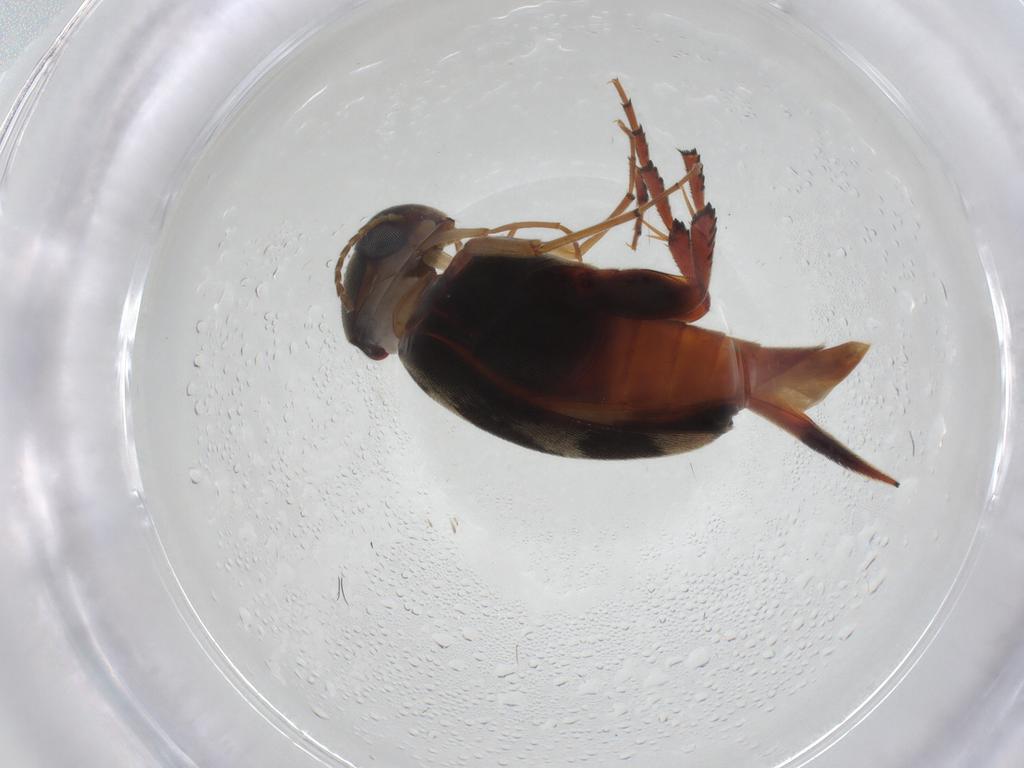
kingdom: Animalia
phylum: Arthropoda
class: Insecta
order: Coleoptera
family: Mordellidae
